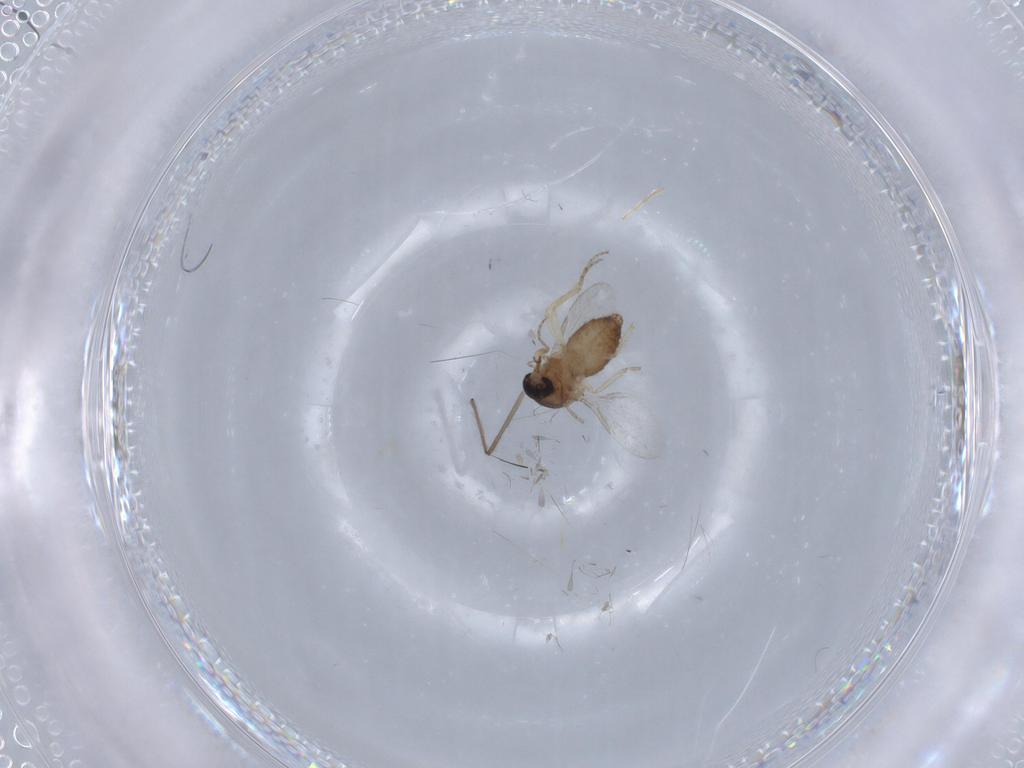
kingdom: Animalia
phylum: Arthropoda
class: Insecta
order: Diptera
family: Ceratopogonidae
